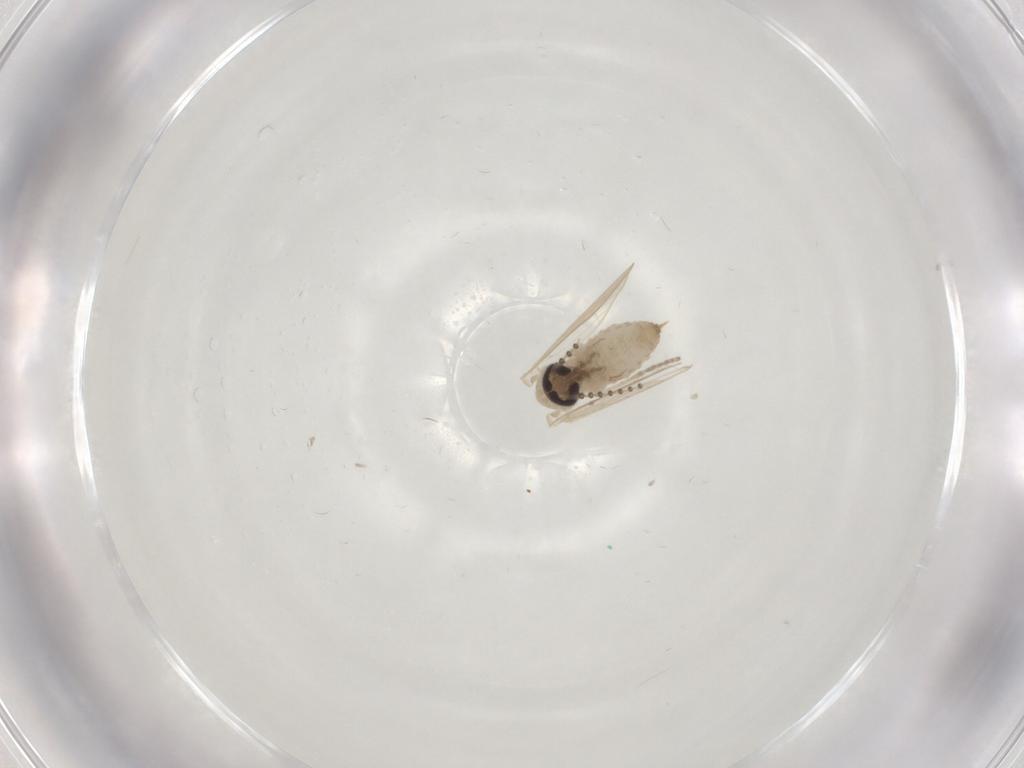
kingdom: Animalia
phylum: Arthropoda
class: Insecta
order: Diptera
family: Psychodidae
